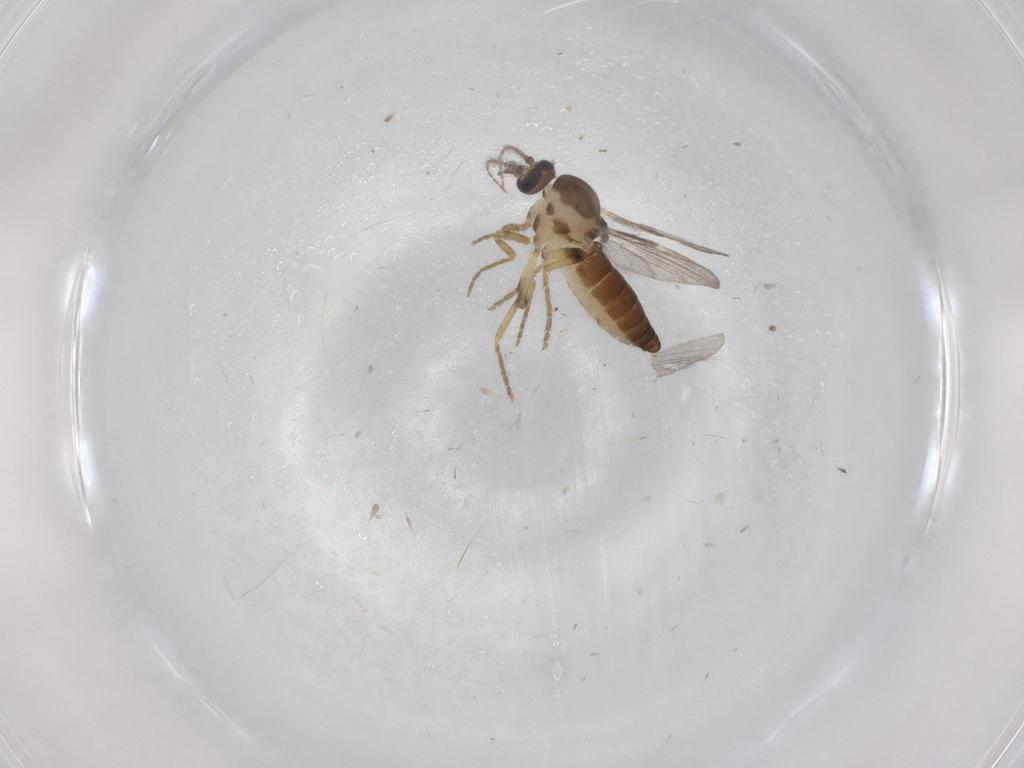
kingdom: Animalia
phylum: Arthropoda
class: Insecta
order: Diptera
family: Ceratopogonidae
